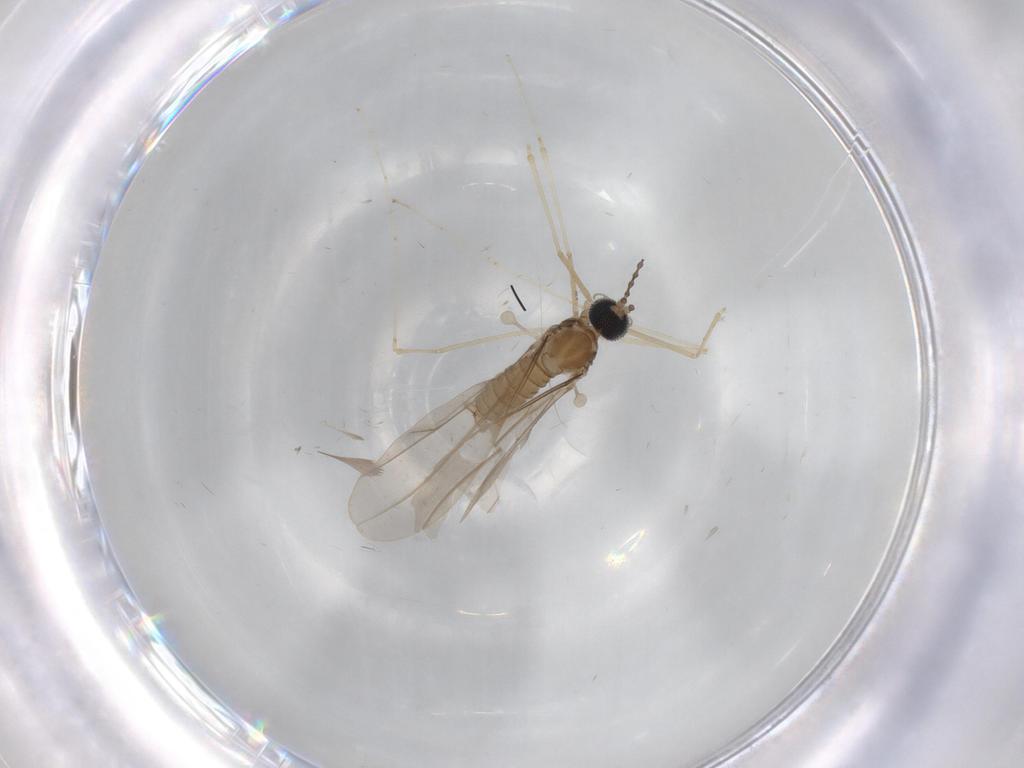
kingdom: Animalia
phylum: Arthropoda
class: Insecta
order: Diptera
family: Cecidomyiidae
